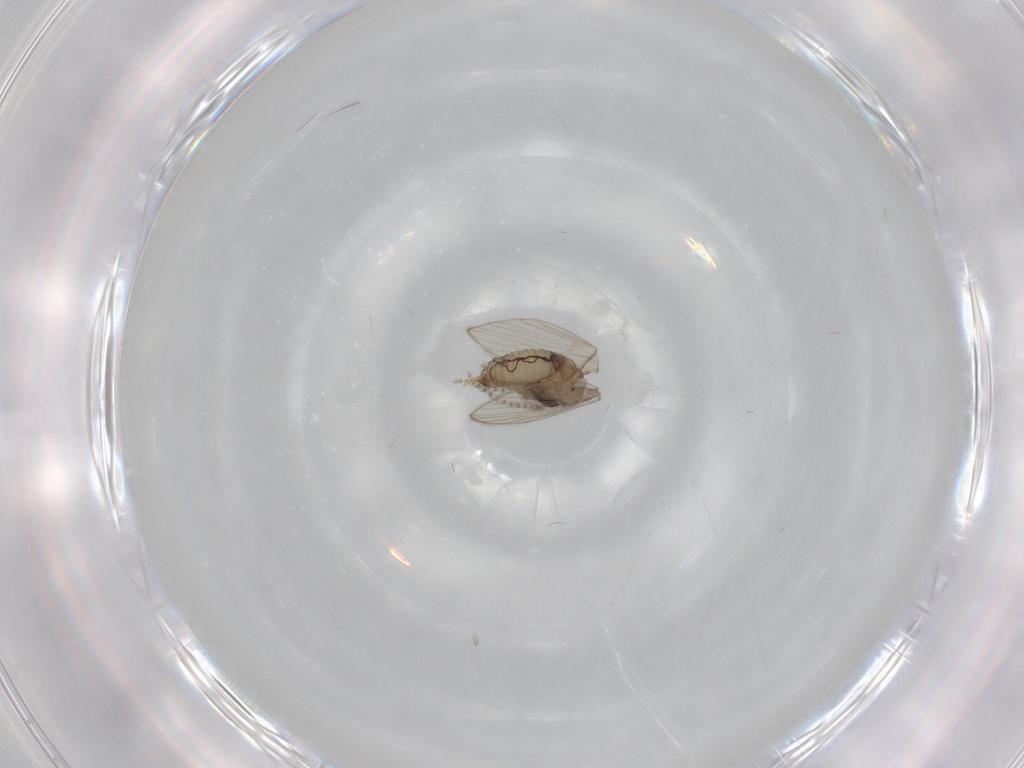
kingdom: Animalia
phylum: Arthropoda
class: Insecta
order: Diptera
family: Psychodidae
